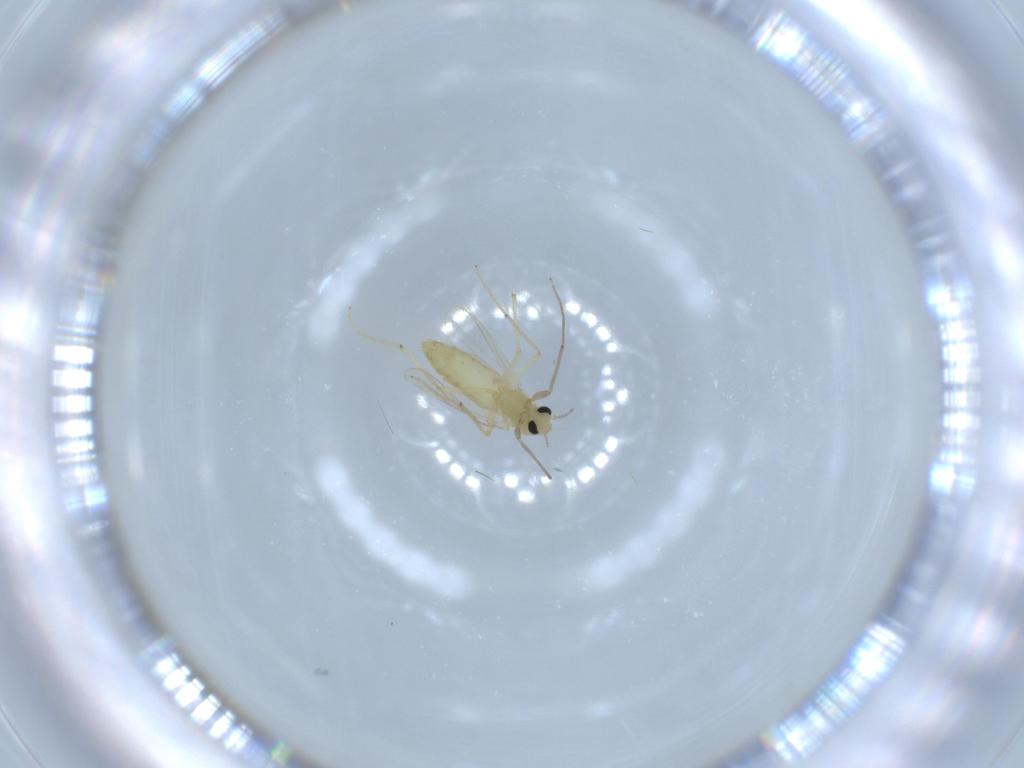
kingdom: Animalia
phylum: Arthropoda
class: Insecta
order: Diptera
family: Chironomidae
